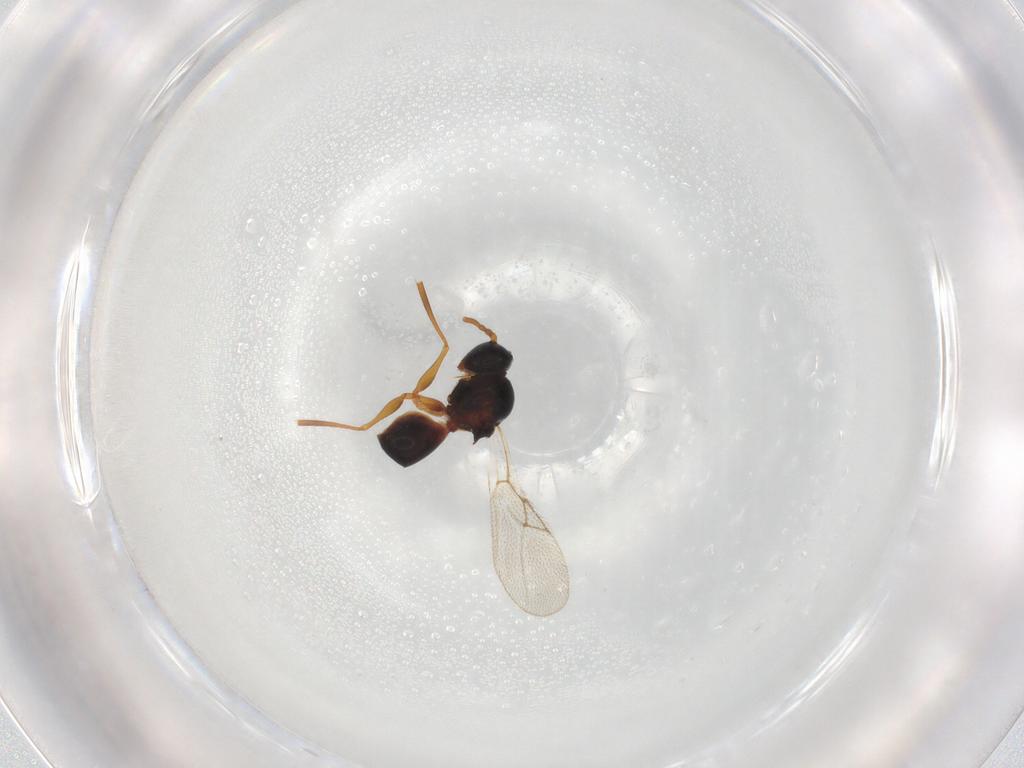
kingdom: Animalia
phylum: Arthropoda
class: Insecta
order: Hymenoptera
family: Figitidae
